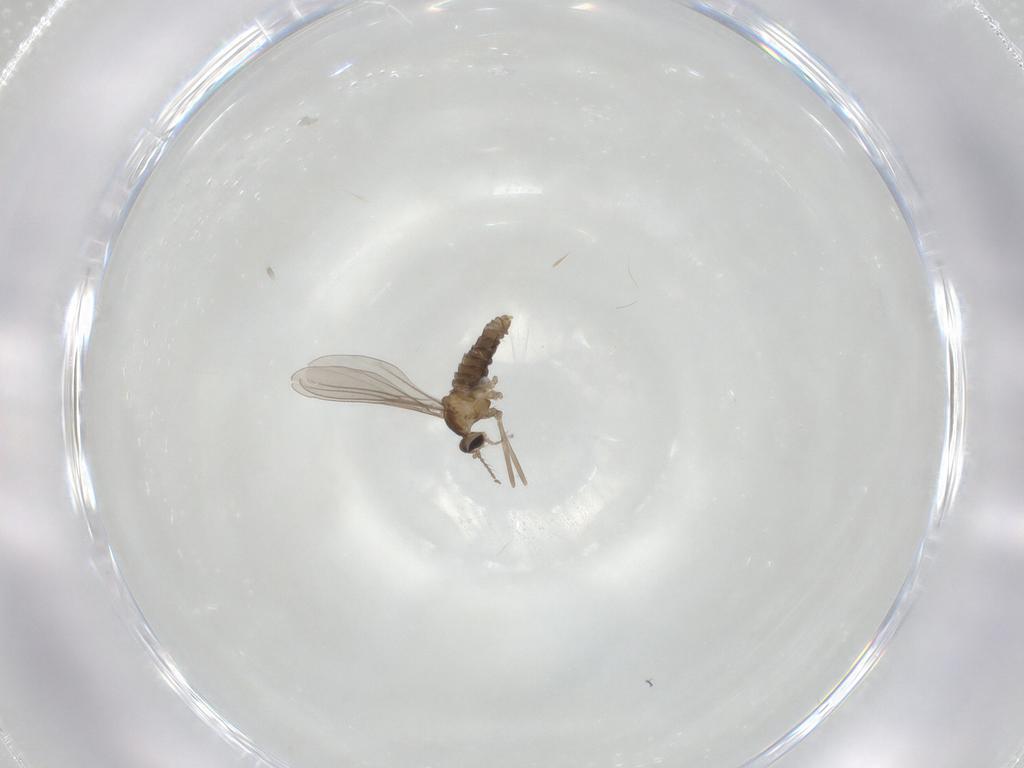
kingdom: Animalia
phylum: Arthropoda
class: Insecta
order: Diptera
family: Cecidomyiidae
